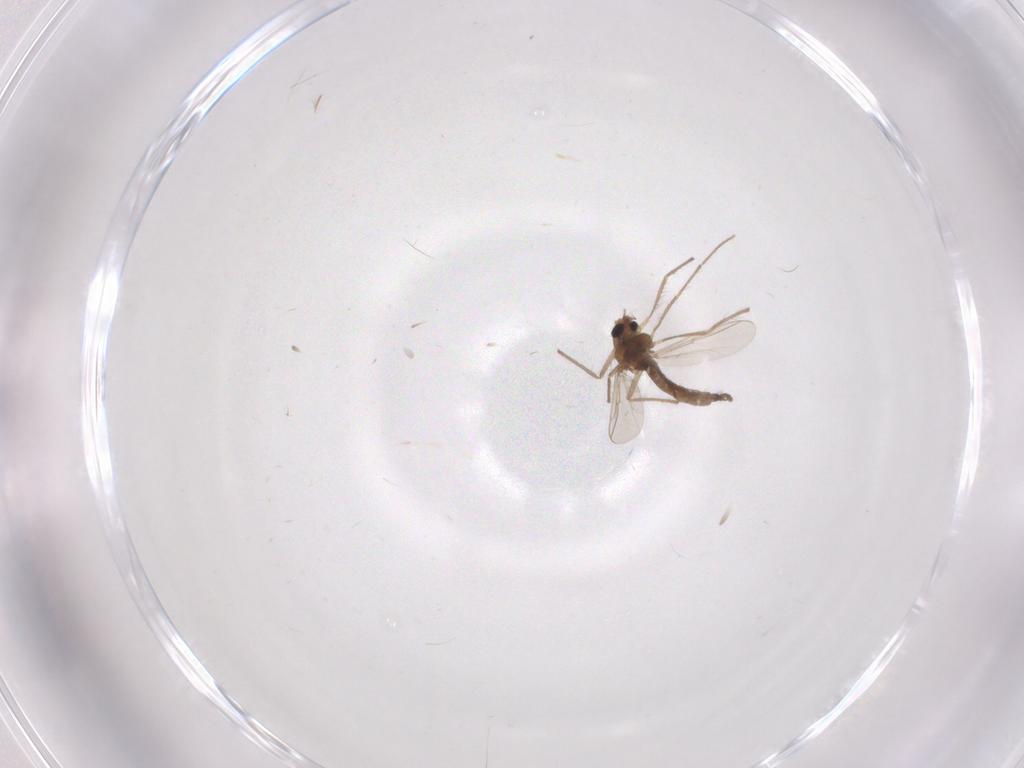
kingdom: Animalia
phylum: Arthropoda
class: Insecta
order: Diptera
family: Chironomidae
